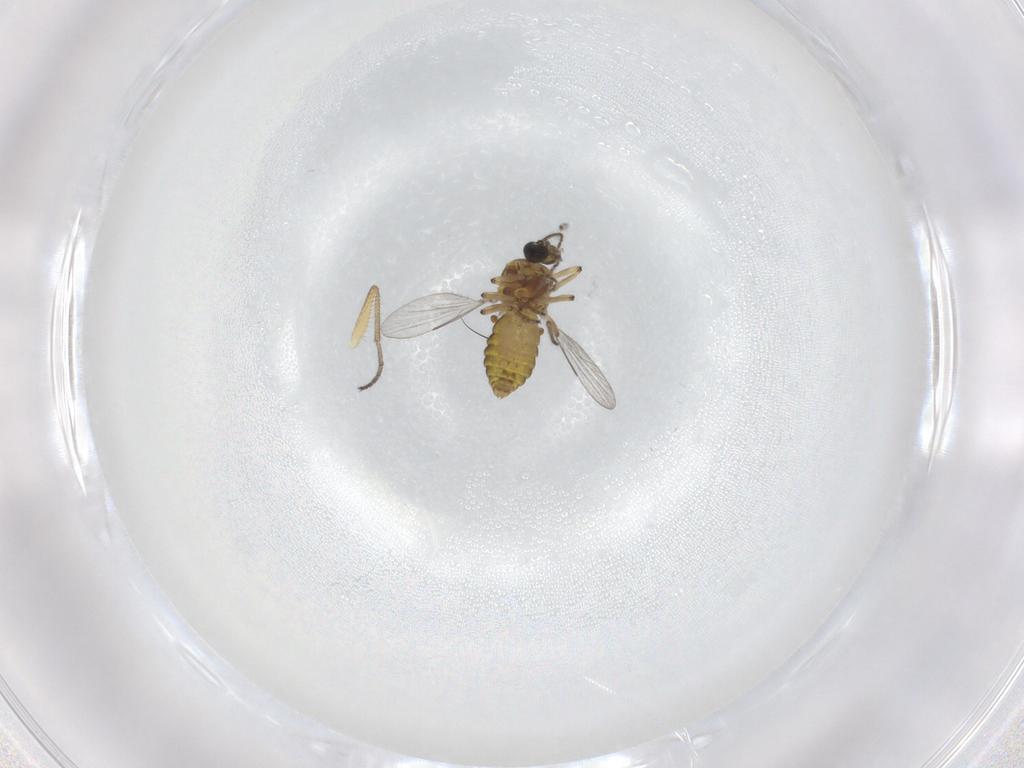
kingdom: Animalia
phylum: Arthropoda
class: Insecta
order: Diptera
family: Ceratopogonidae
